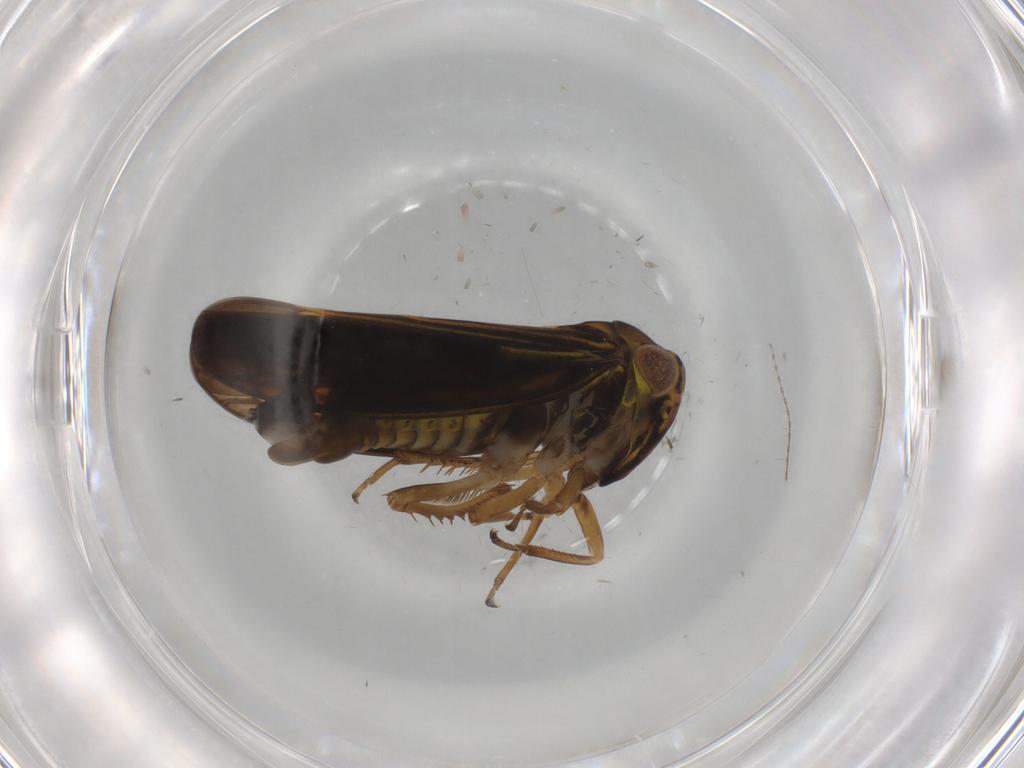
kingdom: Animalia
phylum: Arthropoda
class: Insecta
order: Hemiptera
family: Cicadellidae
